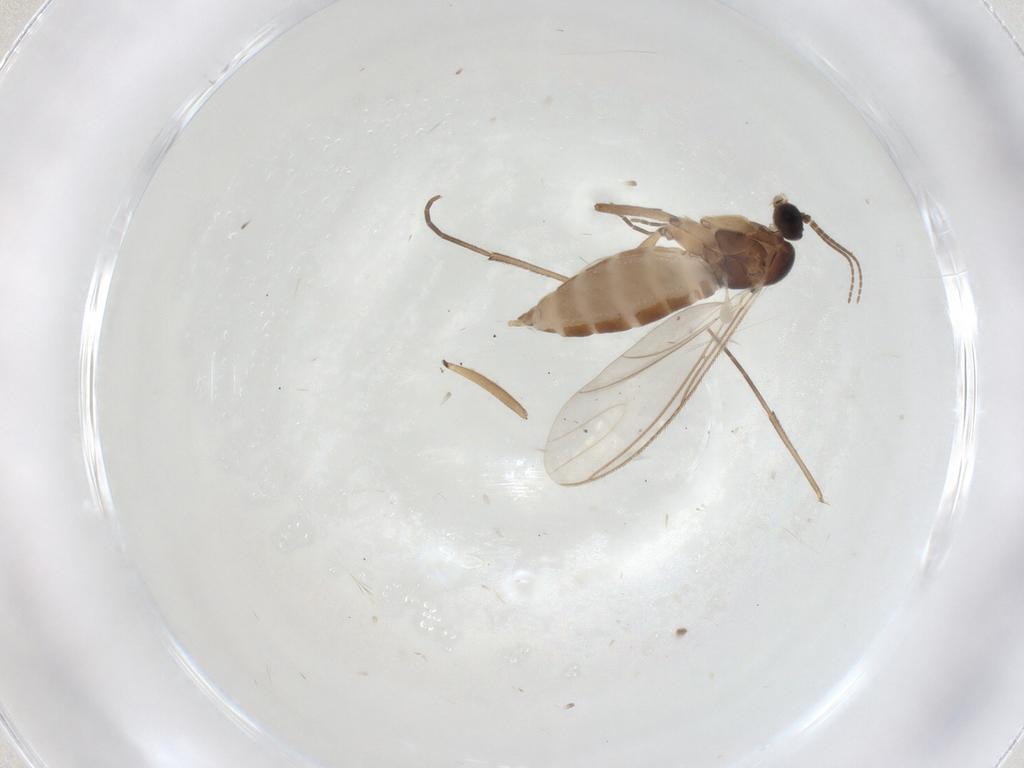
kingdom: Animalia
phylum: Arthropoda
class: Insecta
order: Diptera
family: Sciaridae
